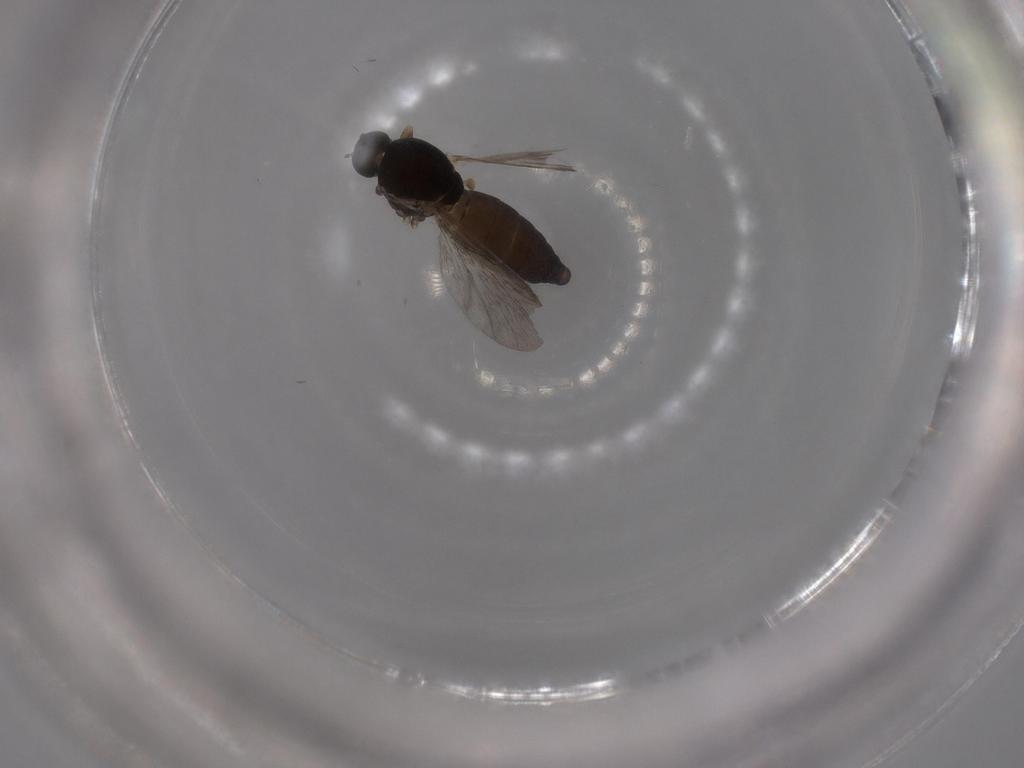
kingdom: Animalia
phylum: Arthropoda
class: Insecta
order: Diptera
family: Ceratopogonidae
